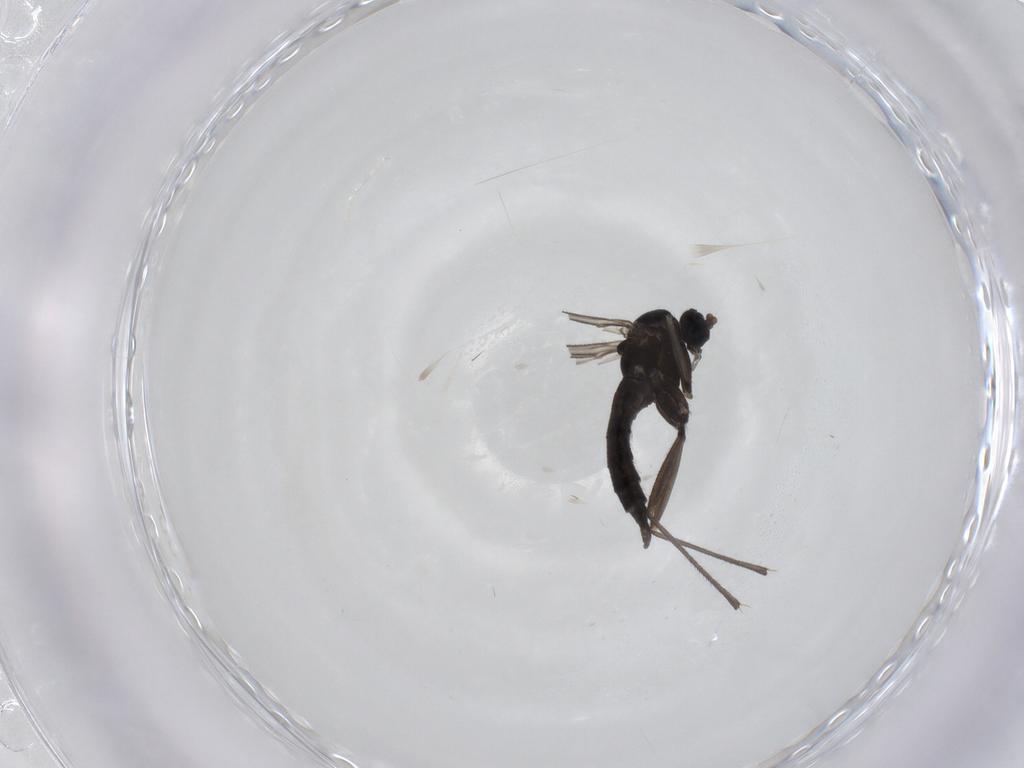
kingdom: Animalia
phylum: Arthropoda
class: Insecta
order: Diptera
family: Sciaridae
